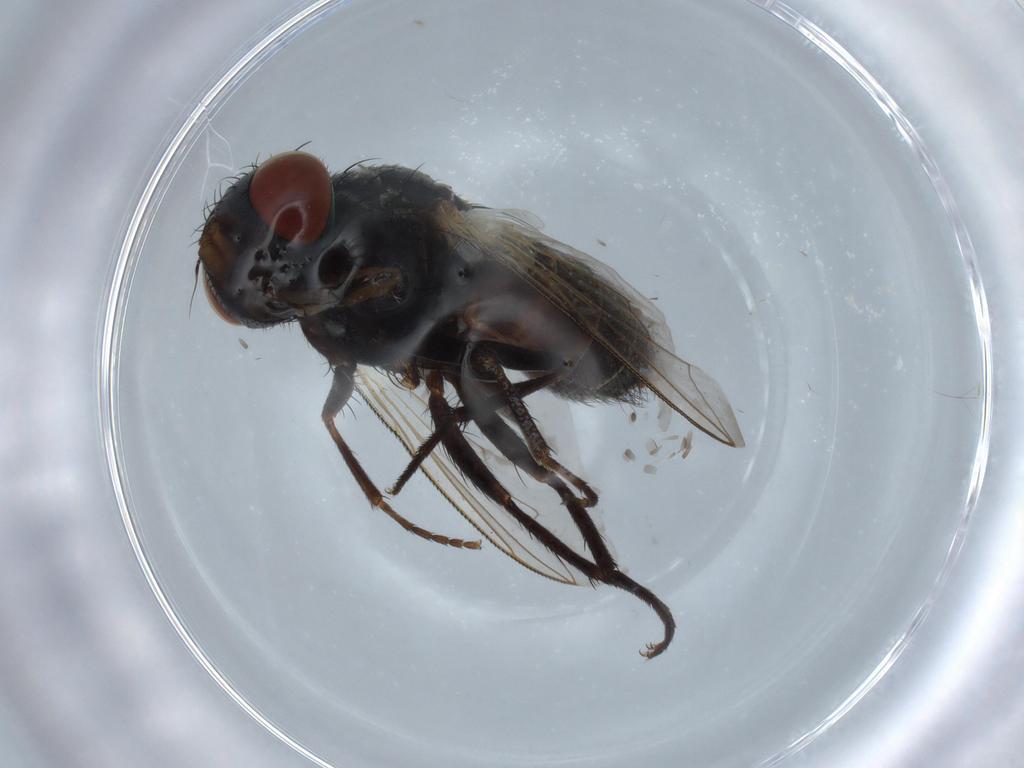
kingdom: Animalia
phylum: Arthropoda
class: Insecta
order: Diptera
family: Sarcophagidae
